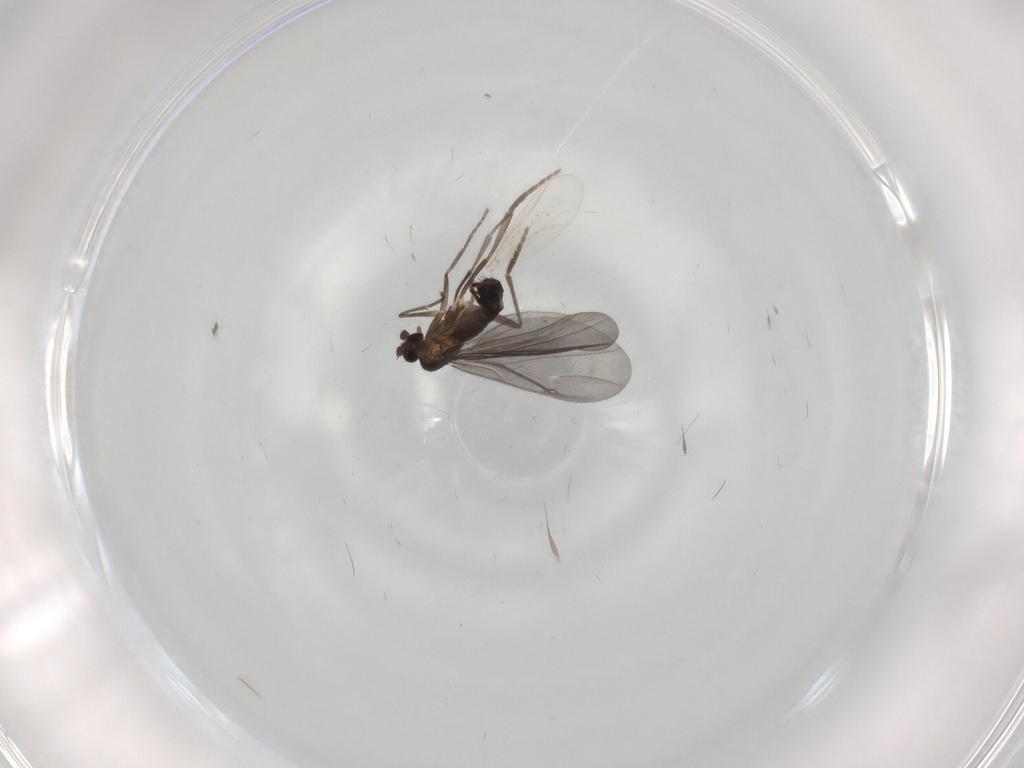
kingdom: Animalia
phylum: Arthropoda
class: Insecta
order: Diptera
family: Phoridae
